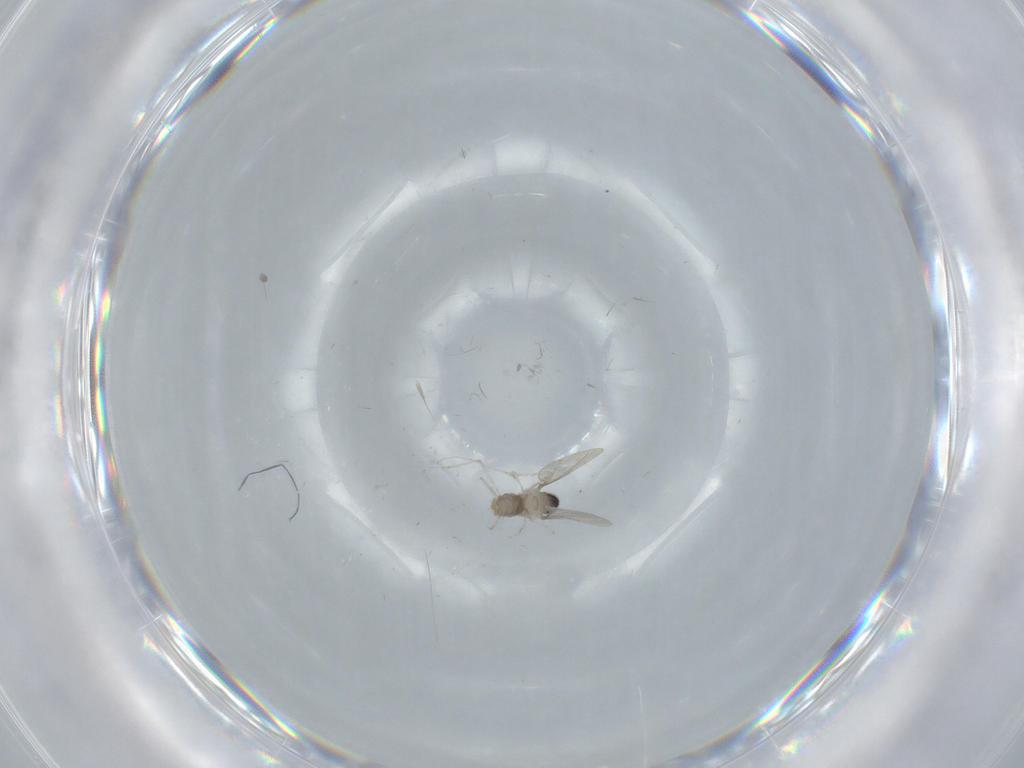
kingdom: Animalia
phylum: Arthropoda
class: Insecta
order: Diptera
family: Cecidomyiidae
